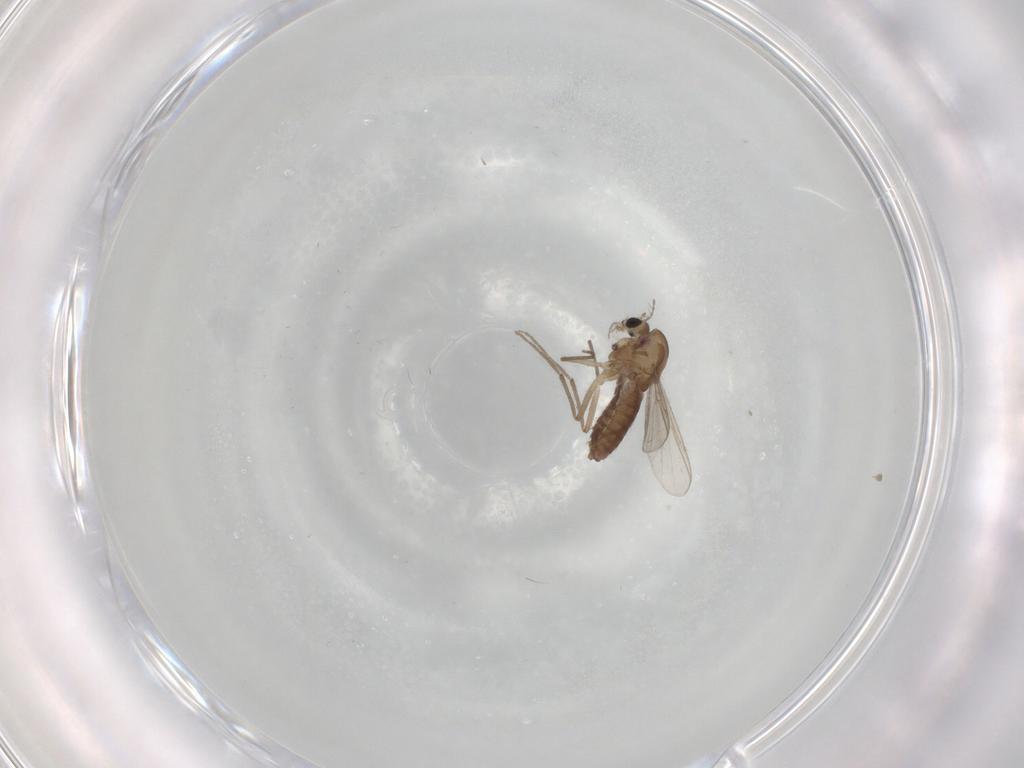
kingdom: Animalia
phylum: Arthropoda
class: Insecta
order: Diptera
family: Chironomidae
